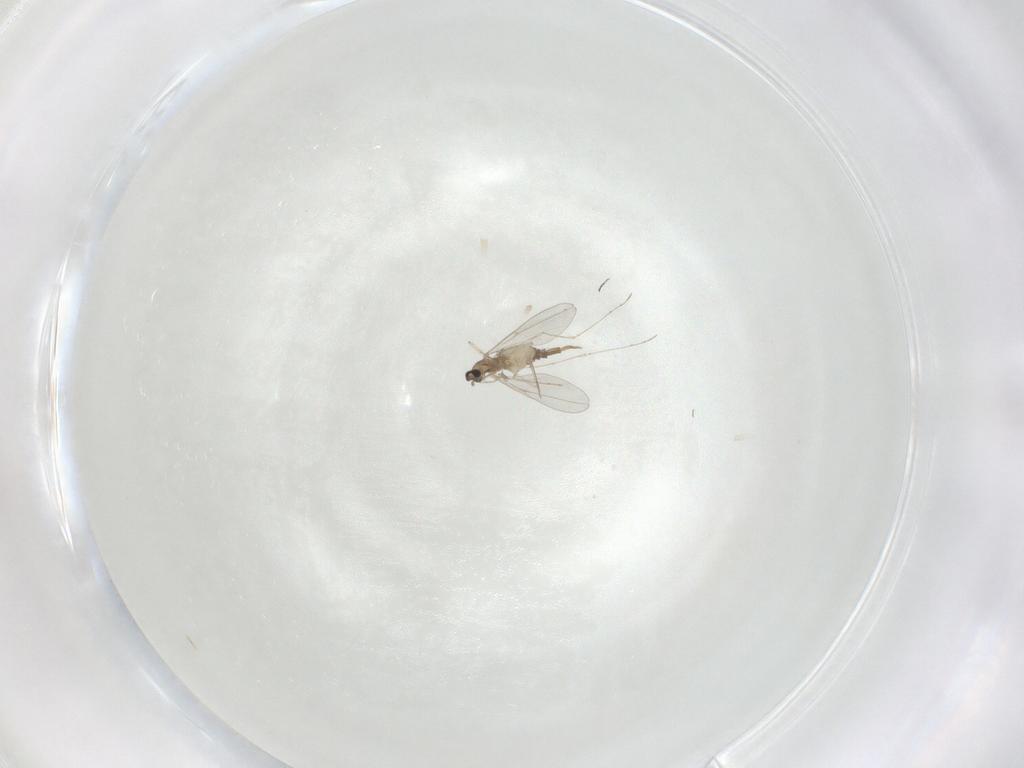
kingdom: Animalia
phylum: Arthropoda
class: Insecta
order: Diptera
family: Cecidomyiidae
